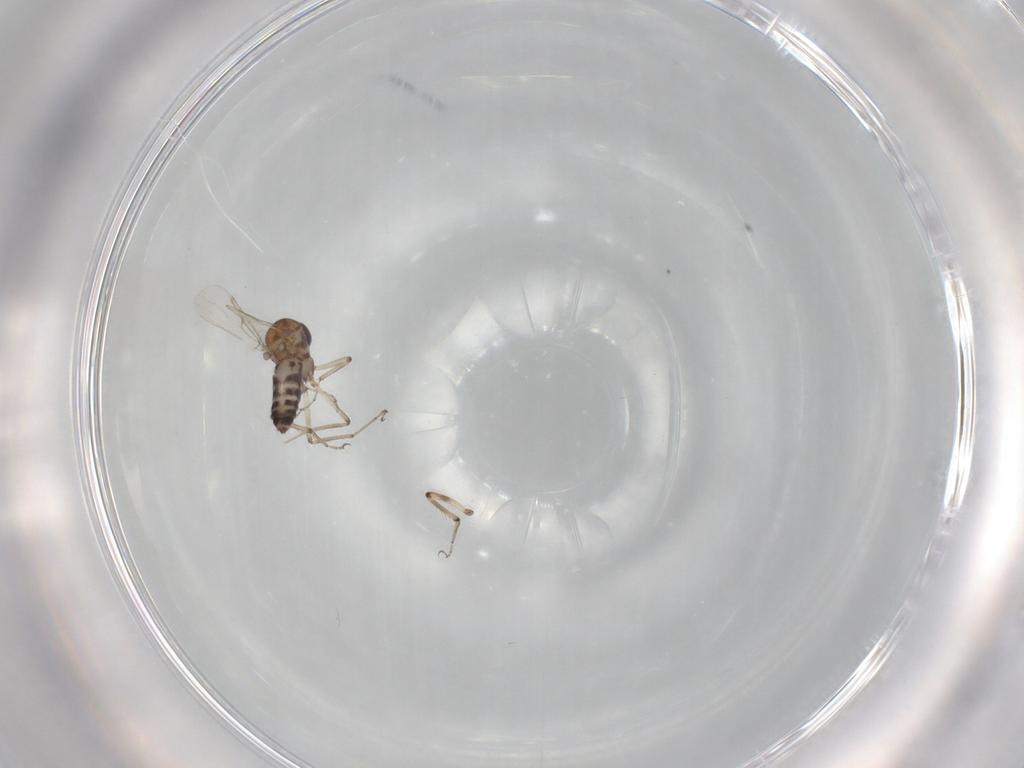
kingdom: Animalia
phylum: Arthropoda
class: Insecta
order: Diptera
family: Ceratopogonidae
